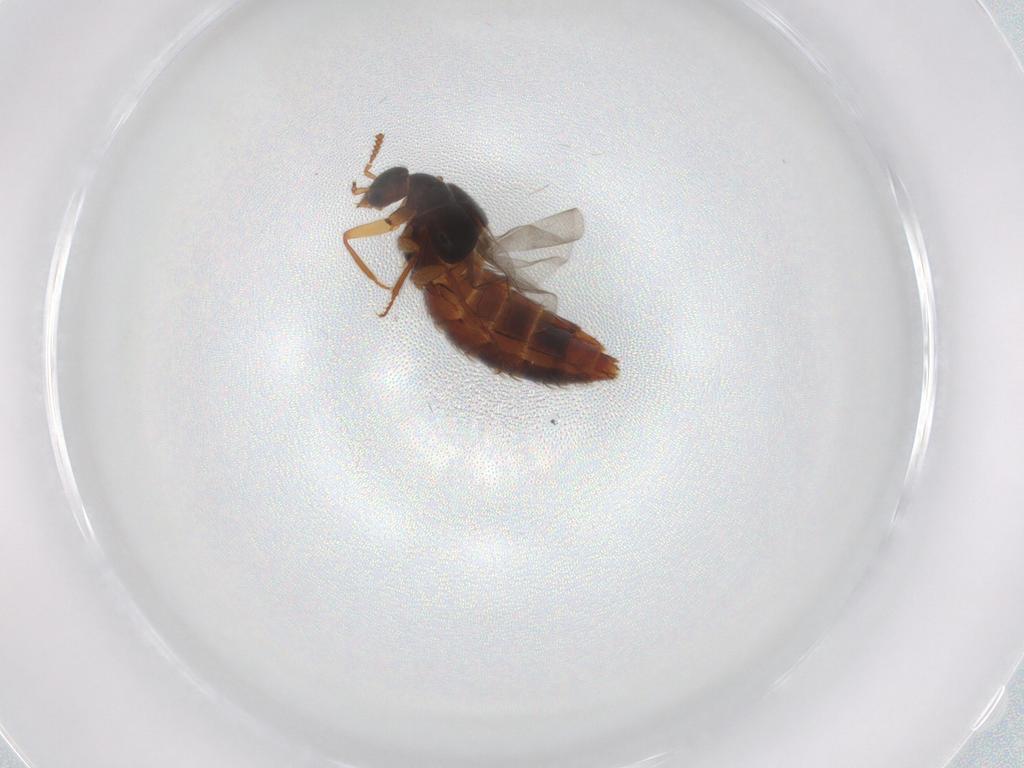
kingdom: Animalia
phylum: Arthropoda
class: Insecta
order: Coleoptera
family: Staphylinidae
